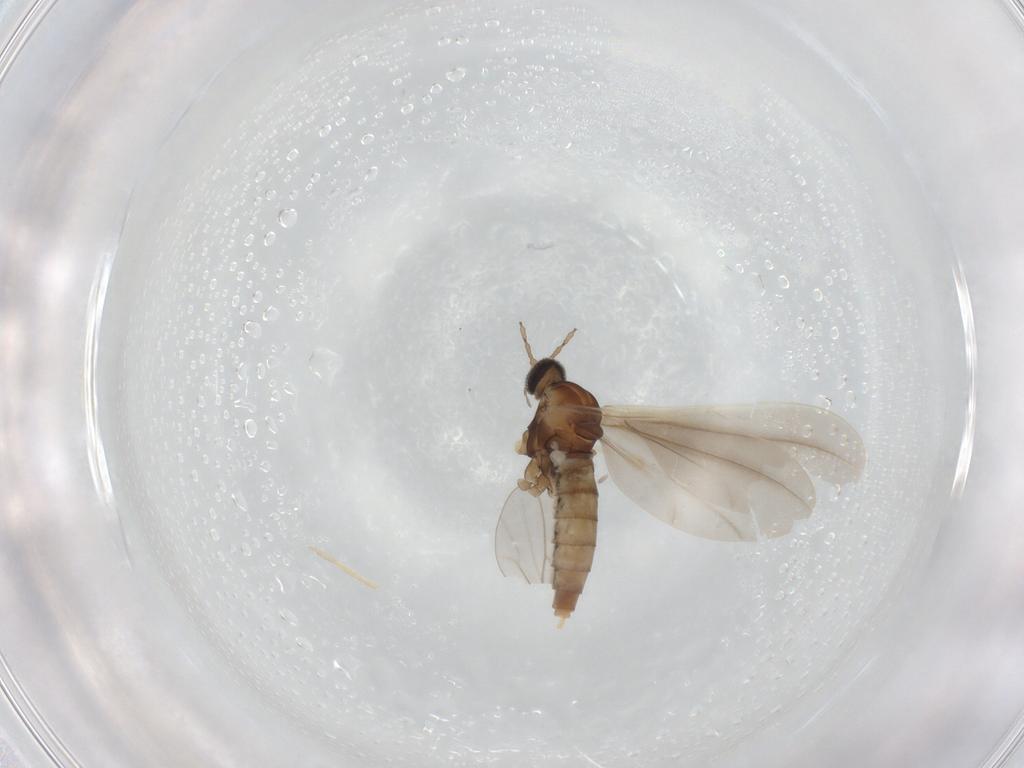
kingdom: Animalia
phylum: Arthropoda
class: Insecta
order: Diptera
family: Cecidomyiidae
